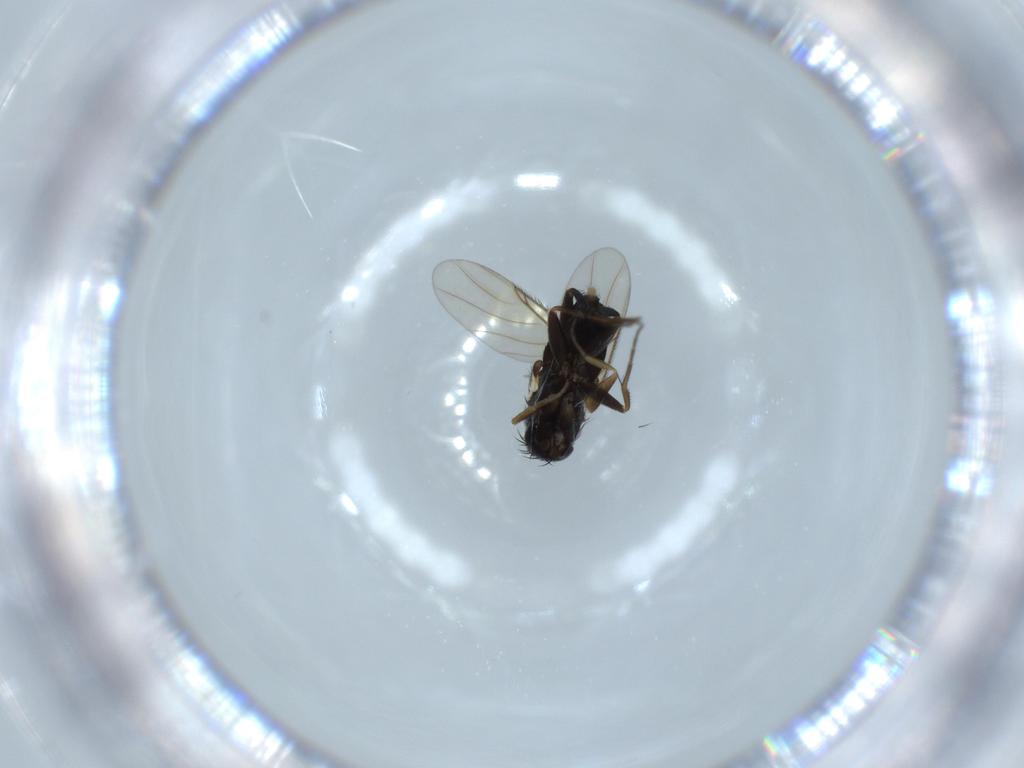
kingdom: Animalia
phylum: Arthropoda
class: Insecta
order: Diptera
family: Phoridae
